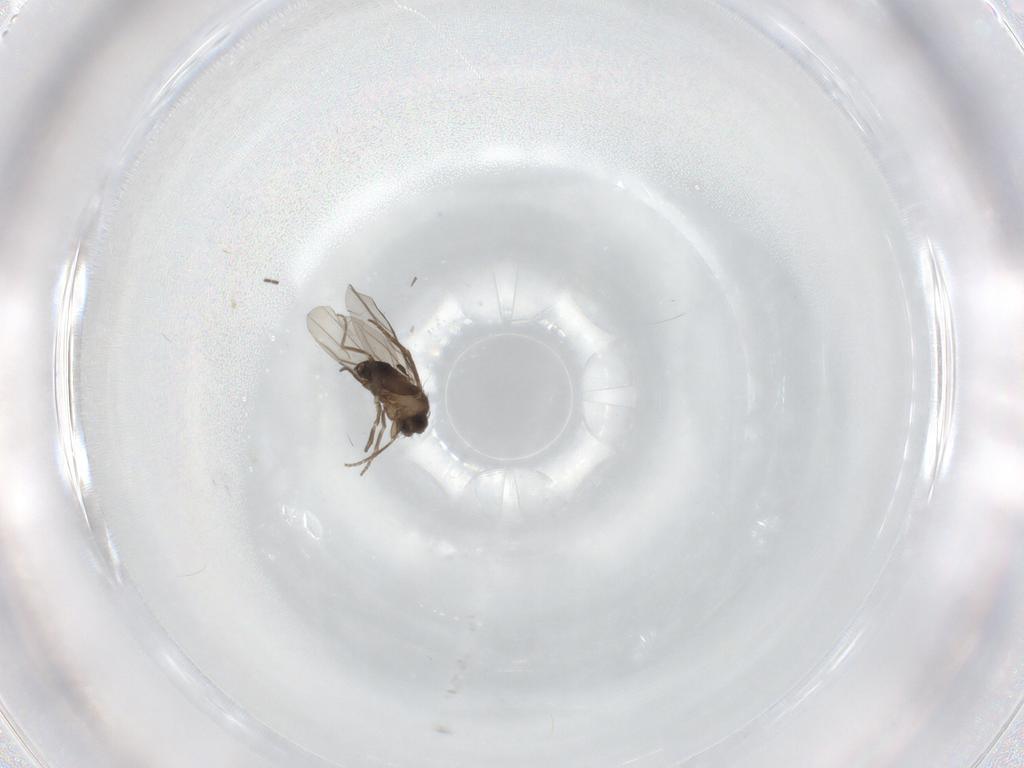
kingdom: Animalia
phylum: Arthropoda
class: Insecta
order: Diptera
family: Sciaridae
